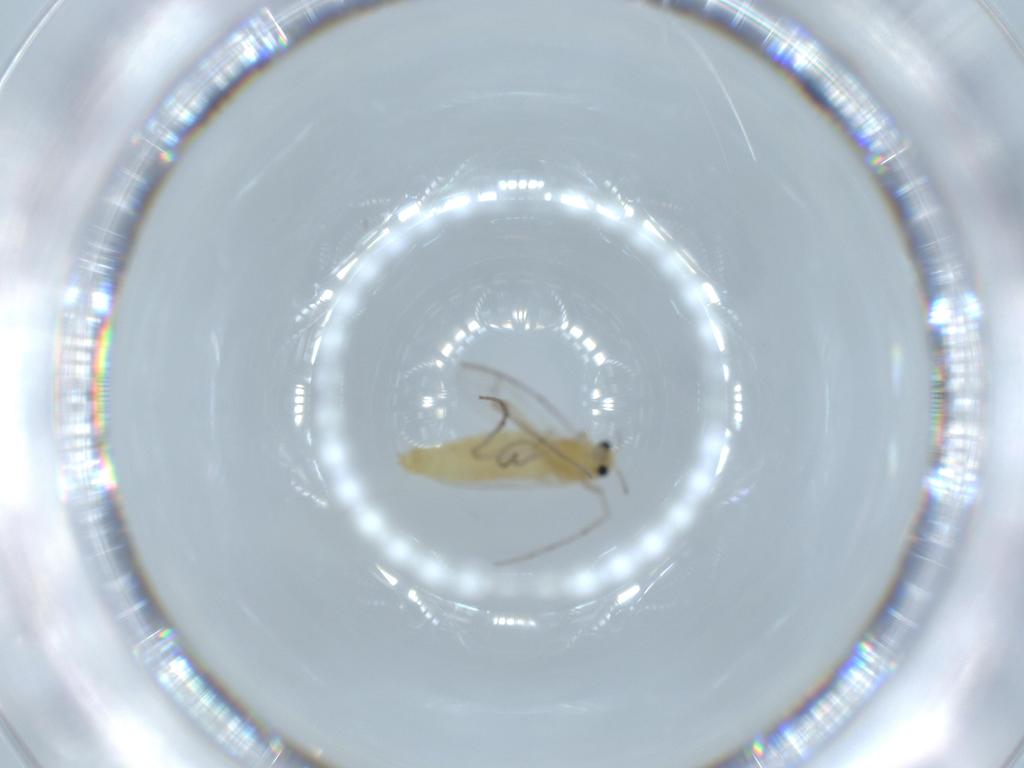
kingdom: Animalia
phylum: Arthropoda
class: Insecta
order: Diptera
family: Chironomidae
